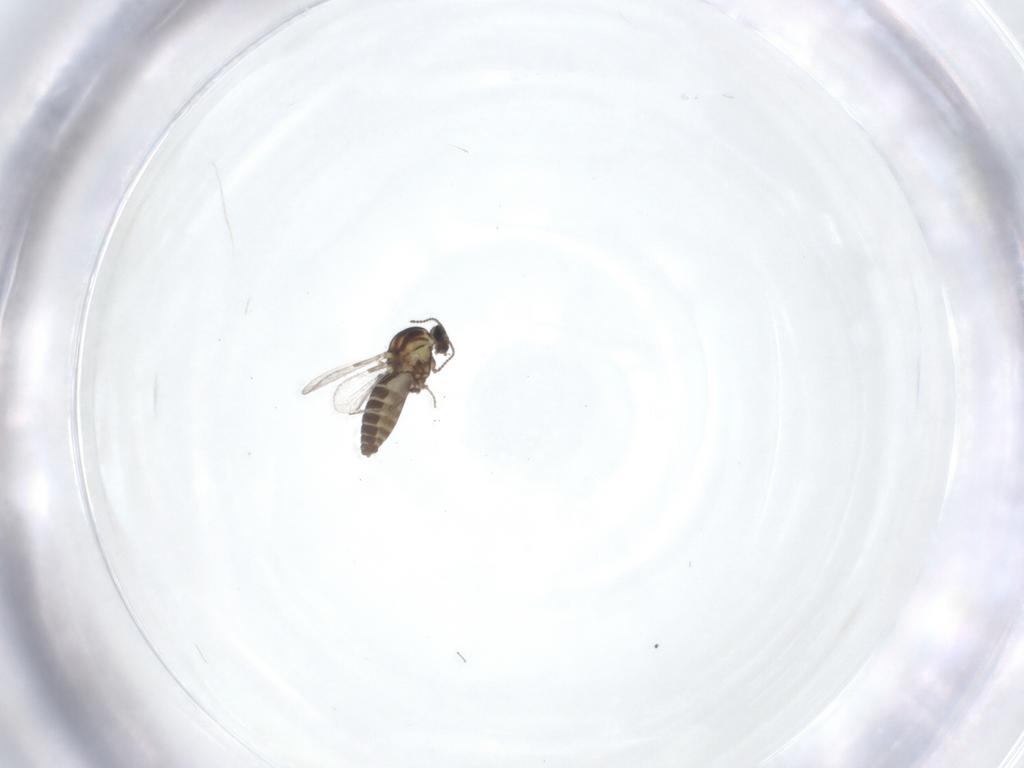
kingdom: Animalia
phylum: Arthropoda
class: Insecta
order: Diptera
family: Ceratopogonidae
